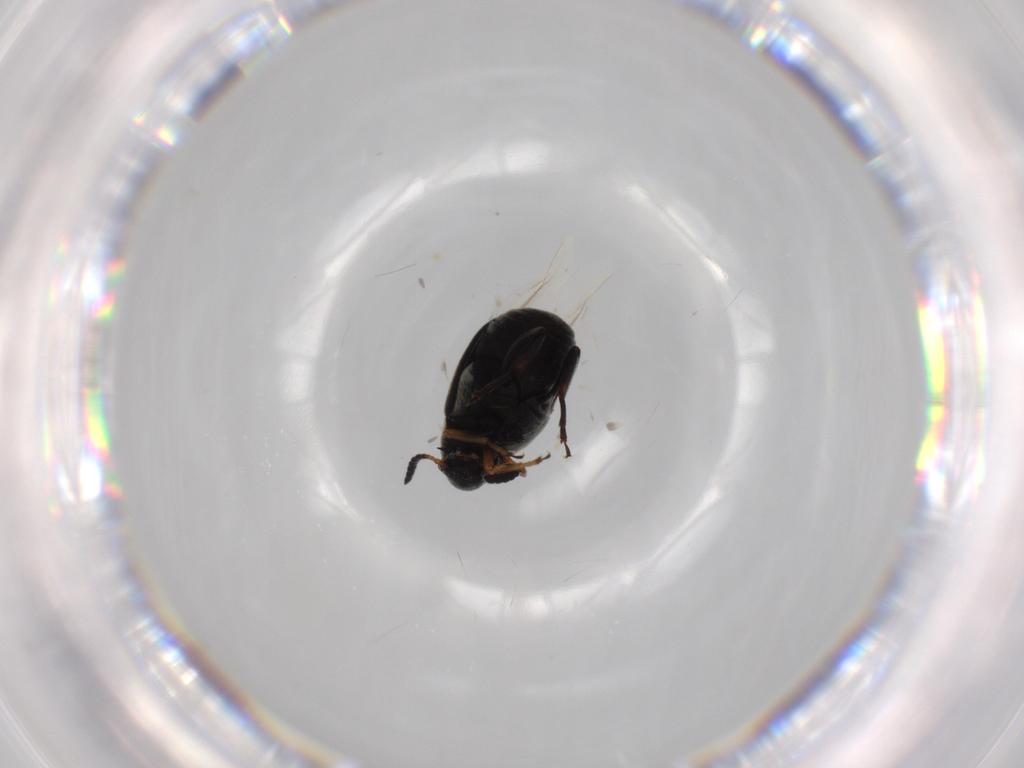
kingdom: Animalia
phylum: Arthropoda
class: Insecta
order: Coleoptera
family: Chrysomelidae
